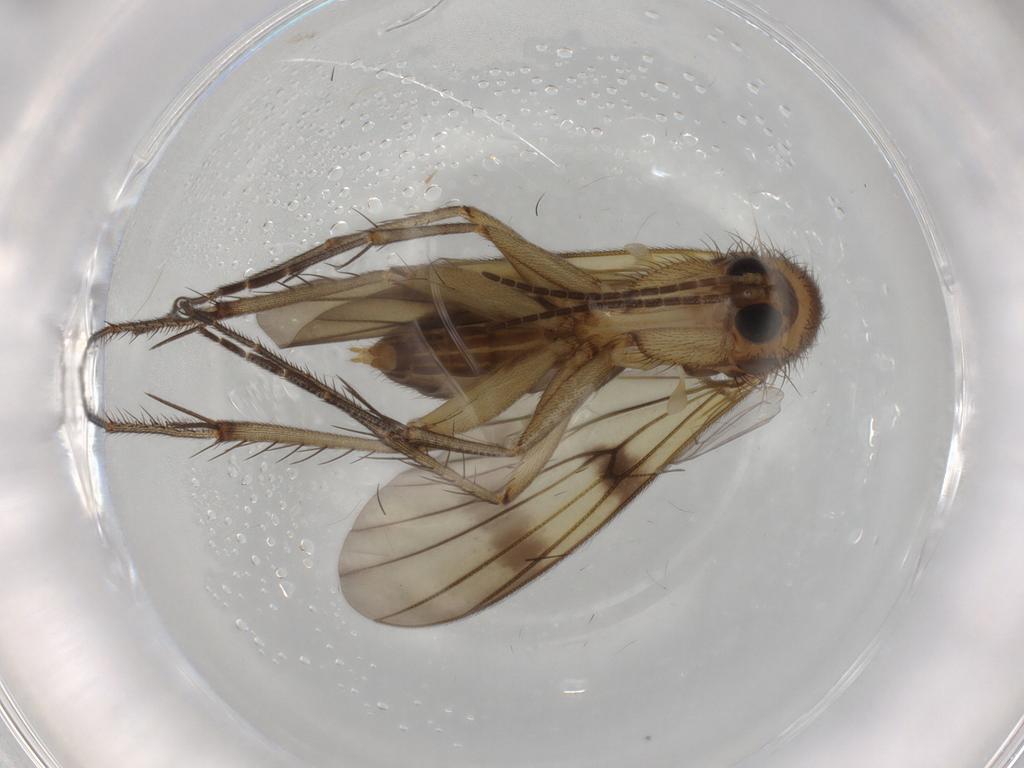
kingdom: Animalia
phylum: Arthropoda
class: Insecta
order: Diptera
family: Mycetophilidae
